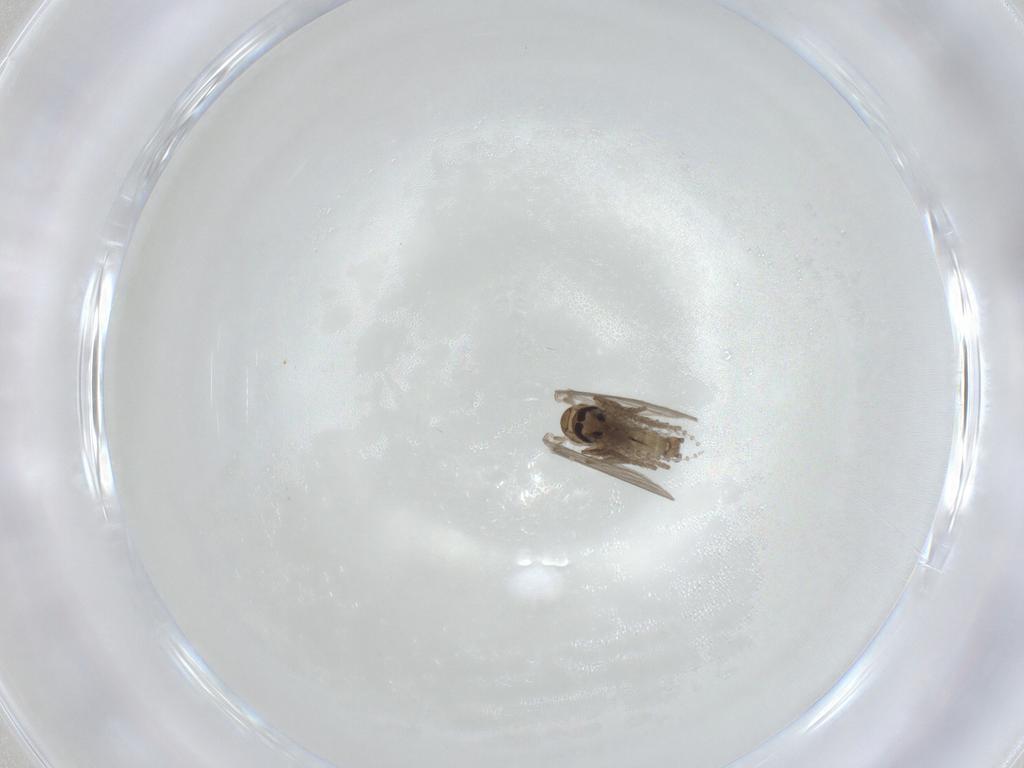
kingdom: Animalia
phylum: Arthropoda
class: Insecta
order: Diptera
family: Psychodidae
